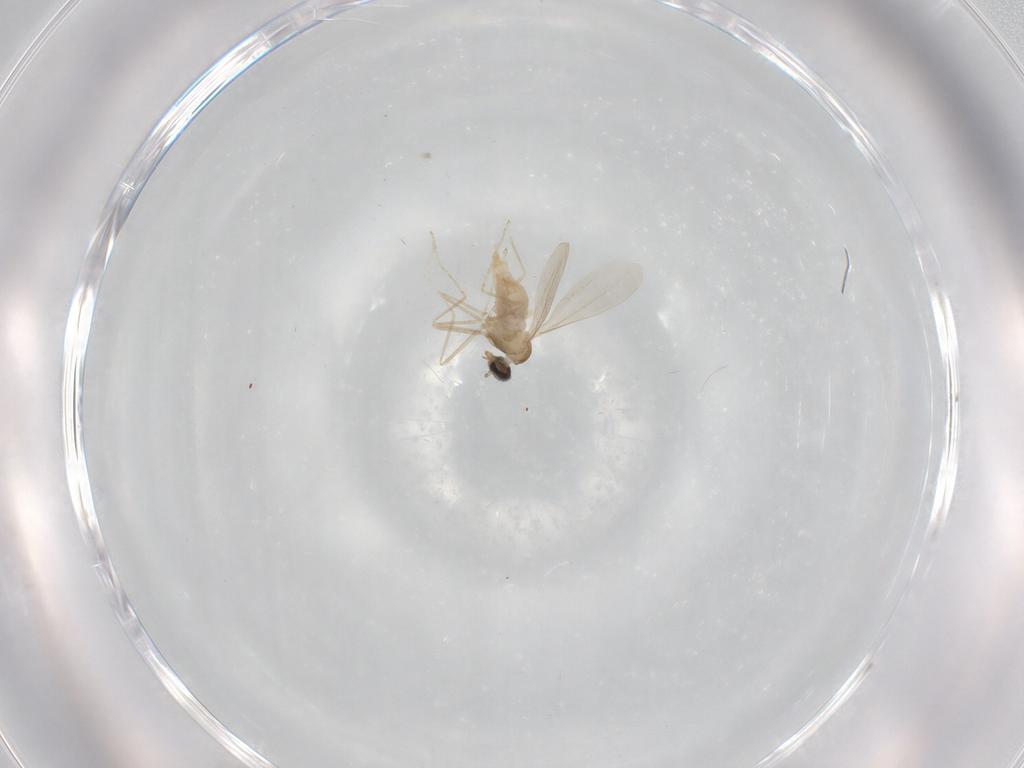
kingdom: Animalia
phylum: Arthropoda
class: Insecta
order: Diptera
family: Cecidomyiidae
